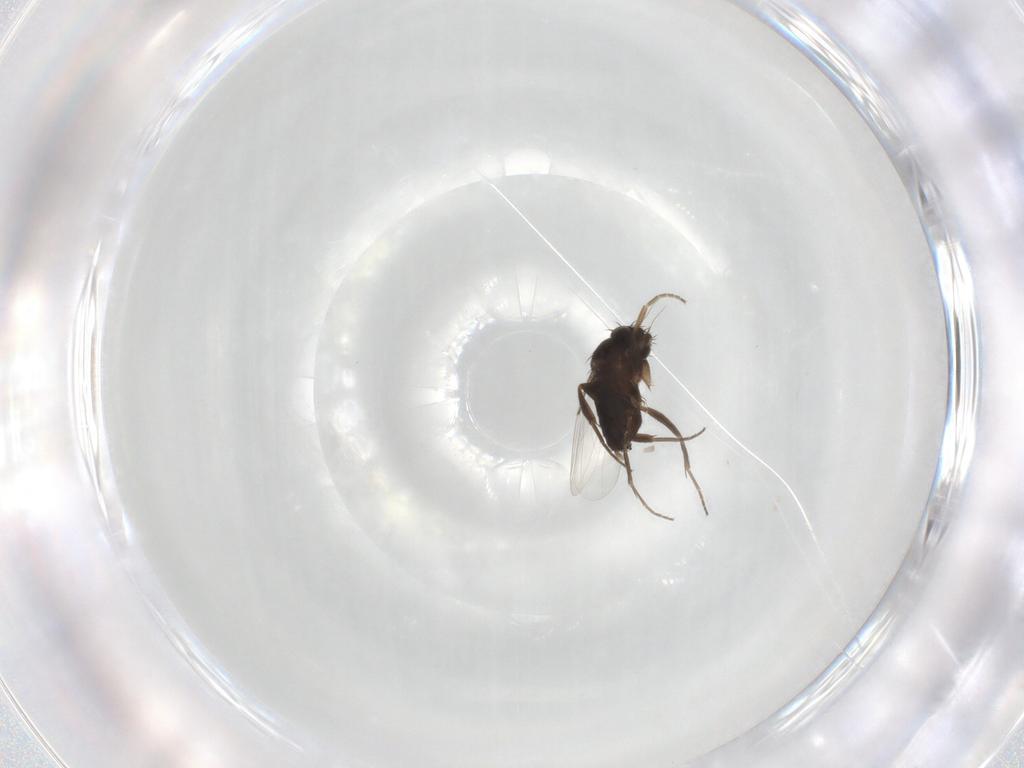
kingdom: Animalia
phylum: Arthropoda
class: Insecta
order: Diptera
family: Phoridae
